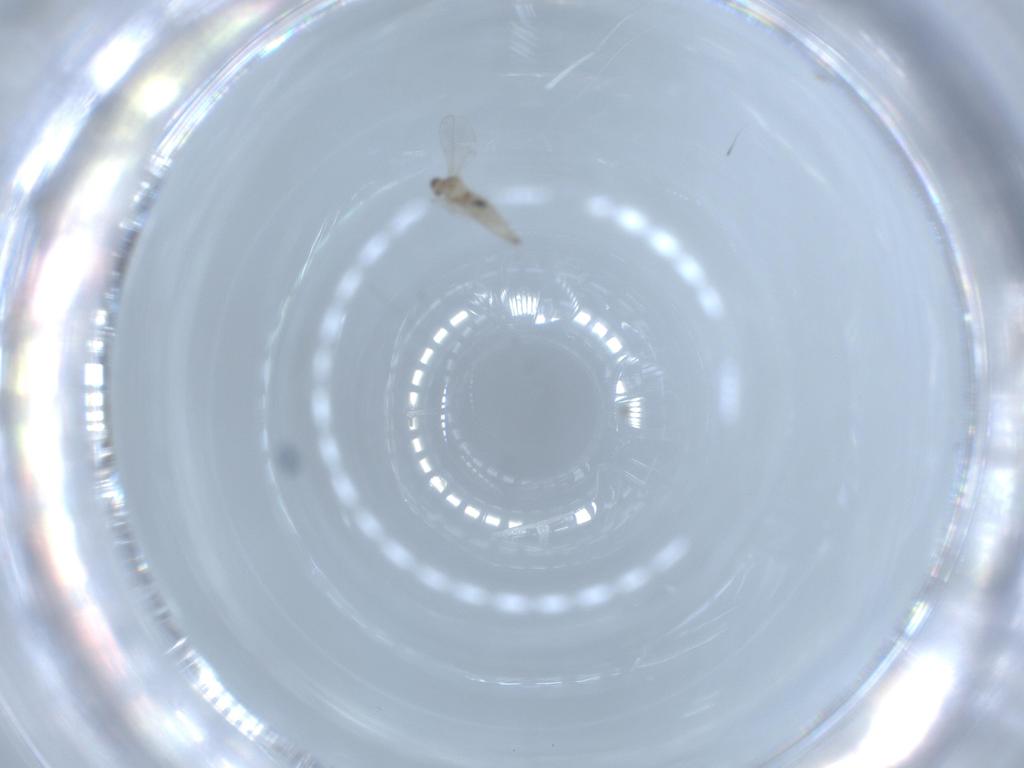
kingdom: Animalia
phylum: Arthropoda
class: Insecta
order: Diptera
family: Phoridae
